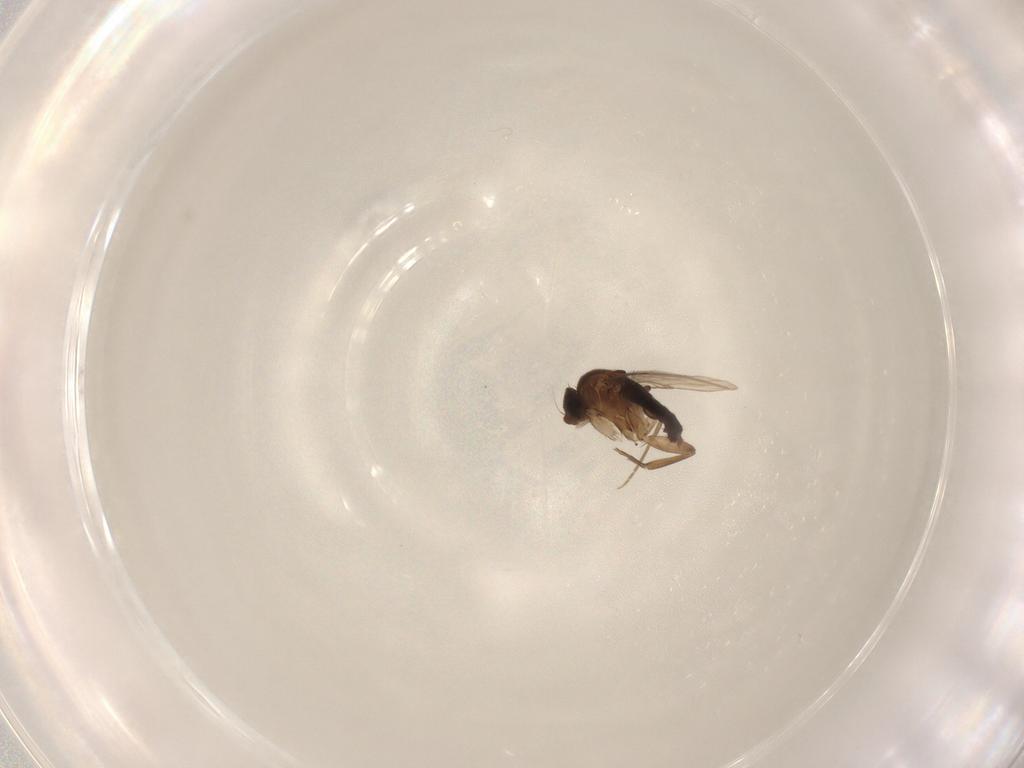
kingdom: Animalia
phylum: Arthropoda
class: Insecta
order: Diptera
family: Phoridae
